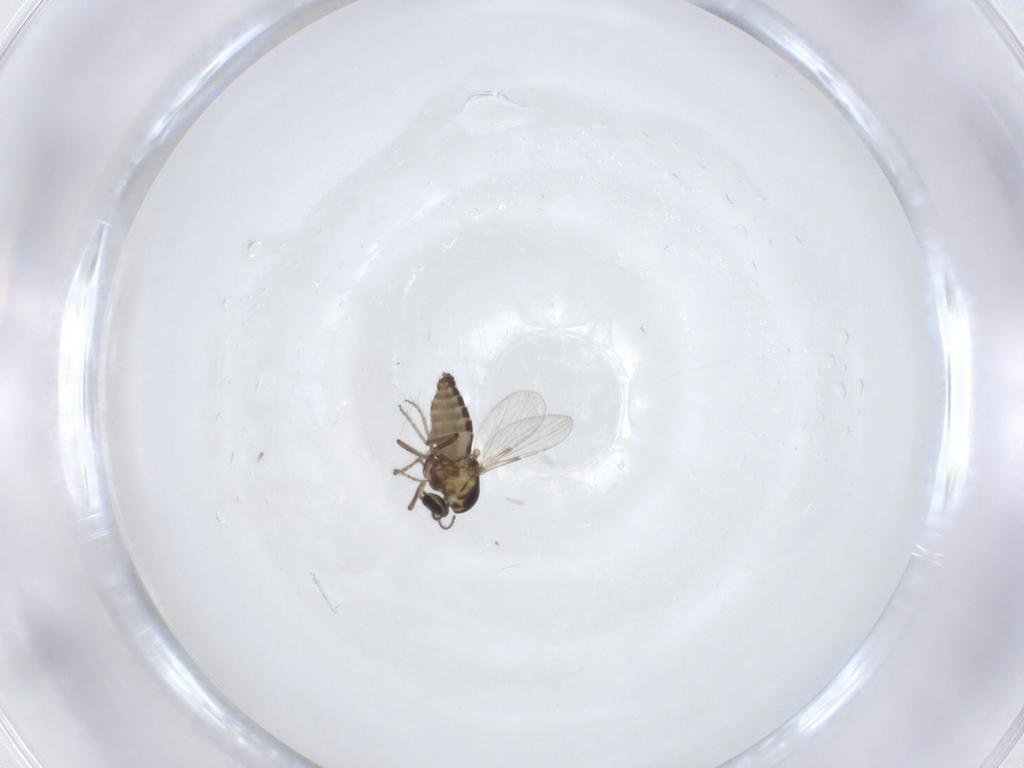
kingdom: Animalia
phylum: Arthropoda
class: Insecta
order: Diptera
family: Ceratopogonidae
